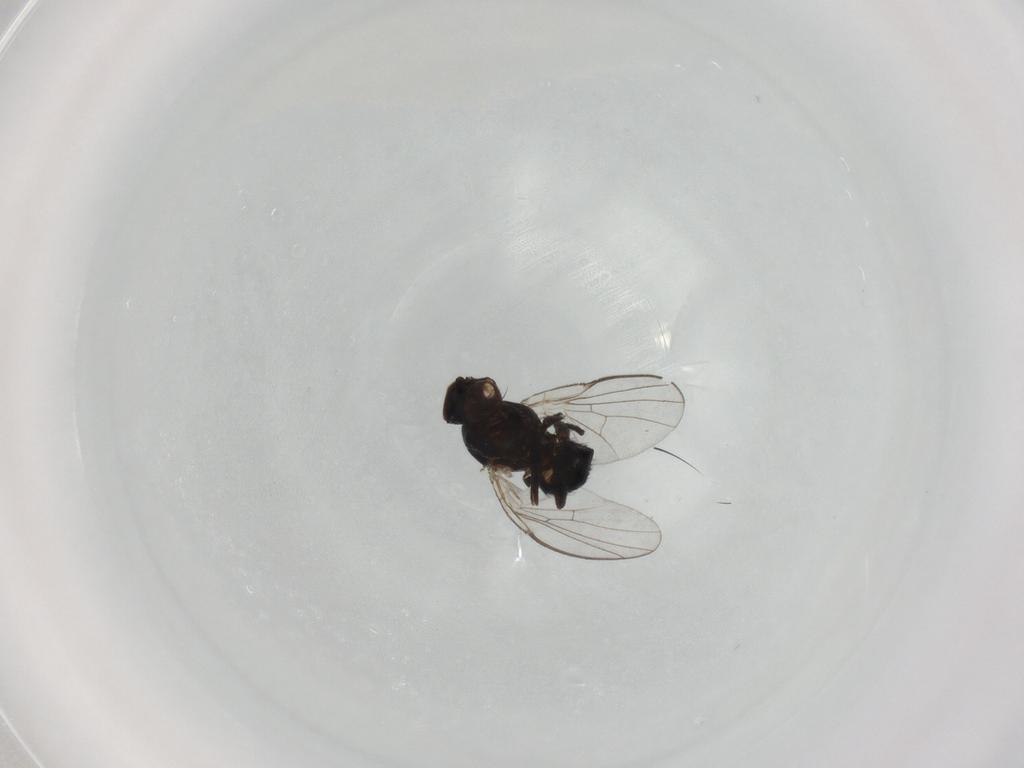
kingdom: Animalia
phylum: Arthropoda
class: Insecta
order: Diptera
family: Agromyzidae
